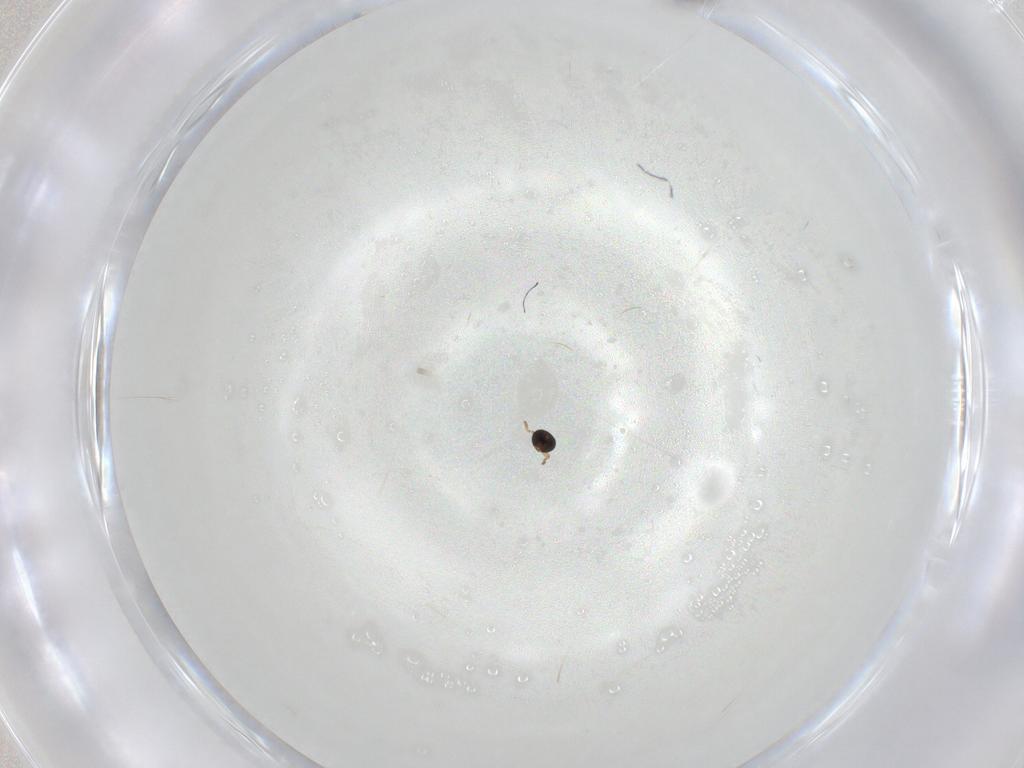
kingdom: Animalia
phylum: Arthropoda
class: Insecta
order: Hymenoptera
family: Platygastridae
